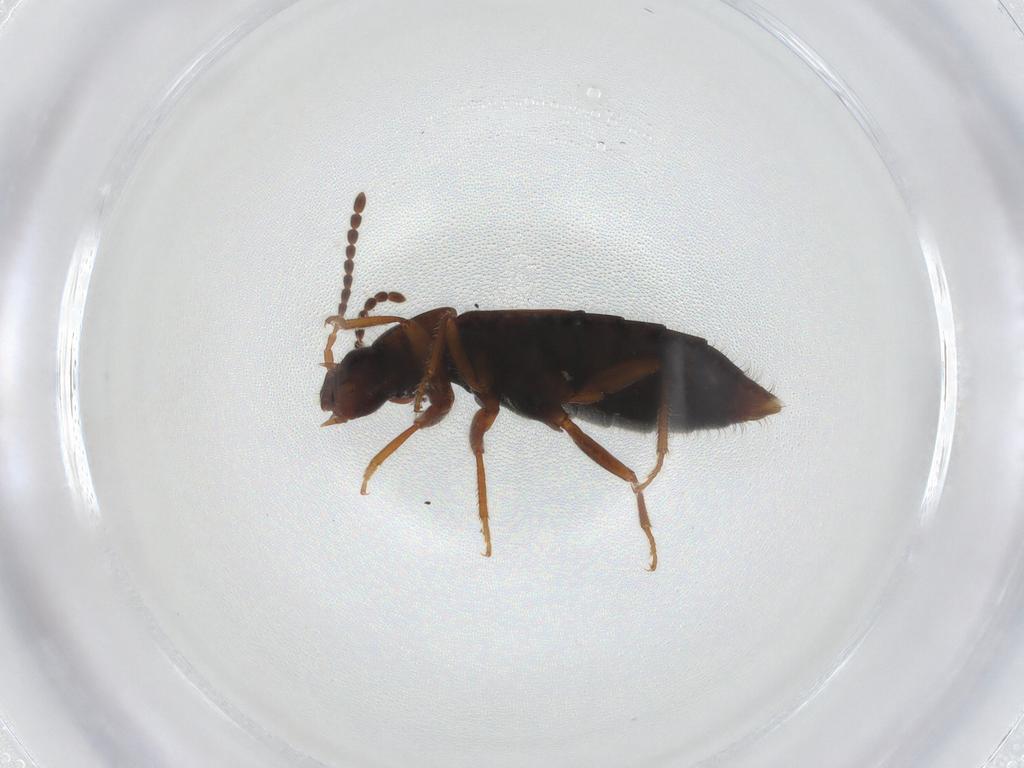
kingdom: Animalia
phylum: Arthropoda
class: Insecta
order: Coleoptera
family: Staphylinidae
